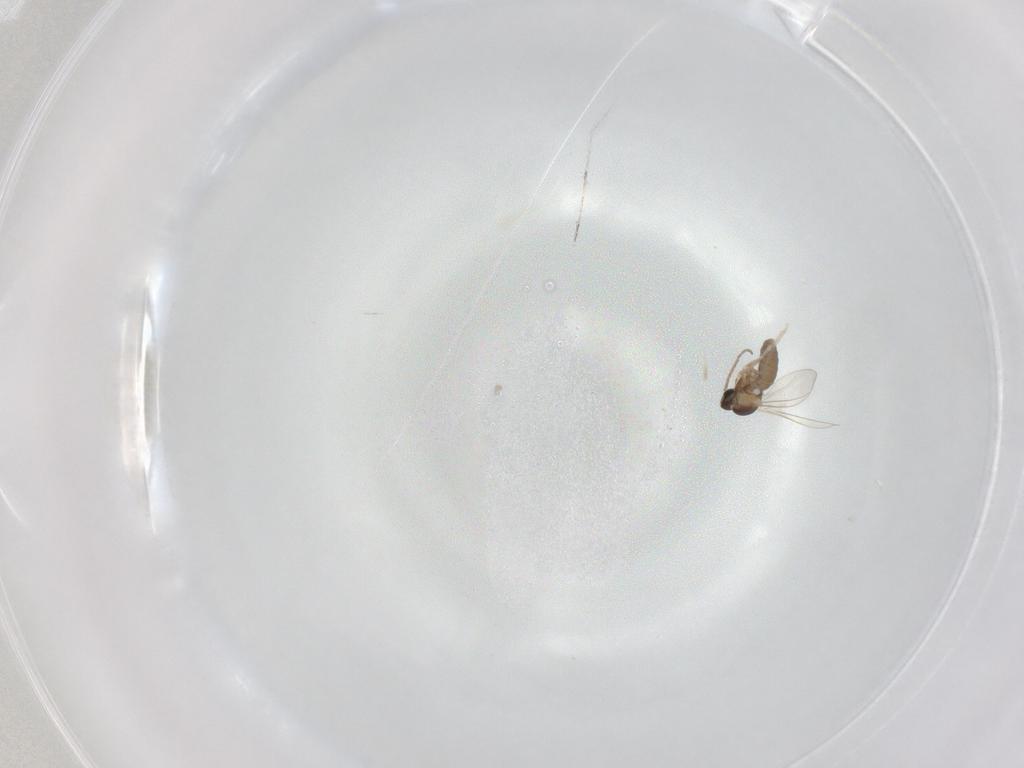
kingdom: Animalia
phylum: Arthropoda
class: Insecta
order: Diptera
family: Cecidomyiidae
